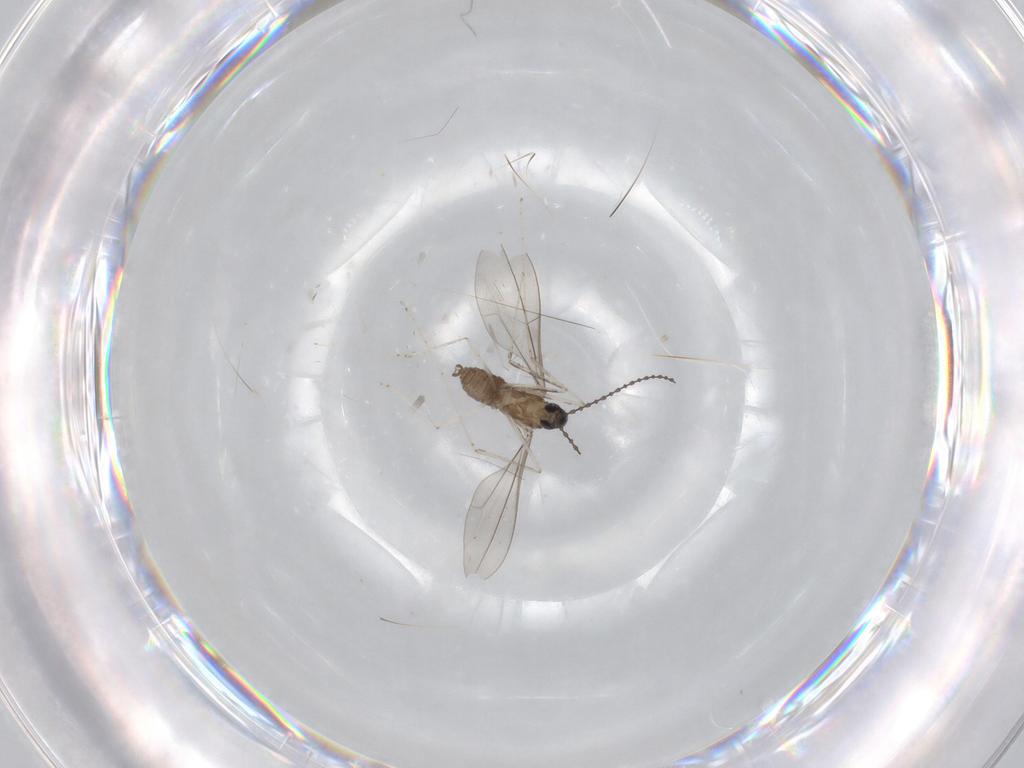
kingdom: Animalia
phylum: Arthropoda
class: Insecta
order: Diptera
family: Cecidomyiidae
